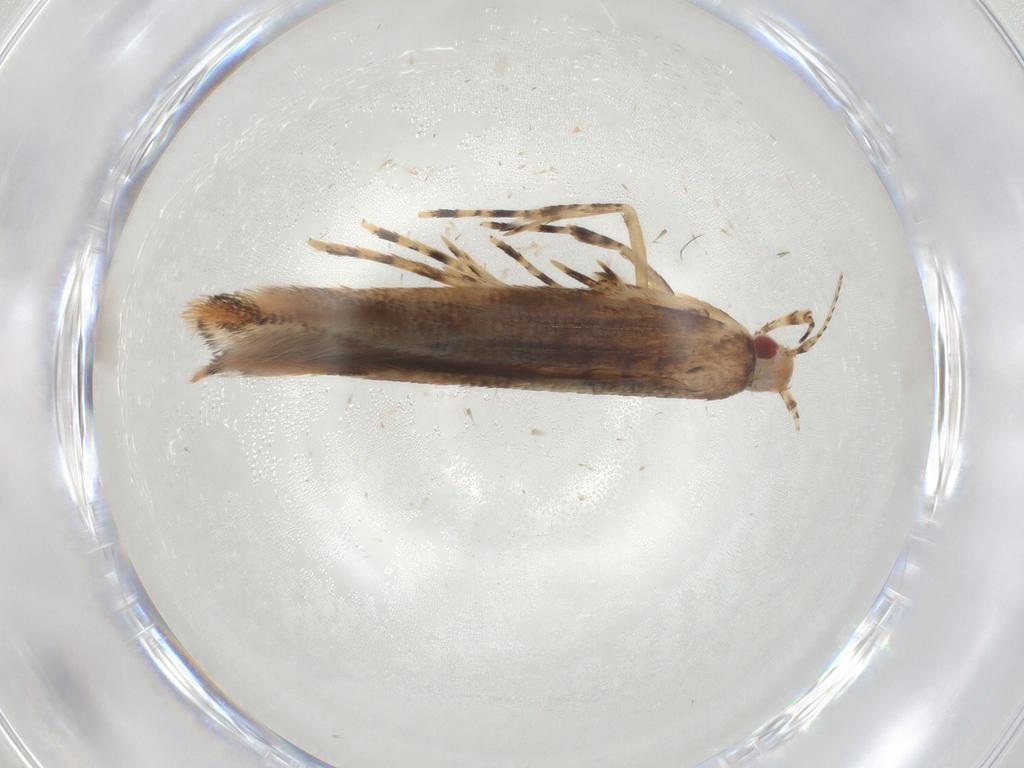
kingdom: Animalia
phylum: Arthropoda
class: Insecta
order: Lepidoptera
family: Cosmopterigidae
